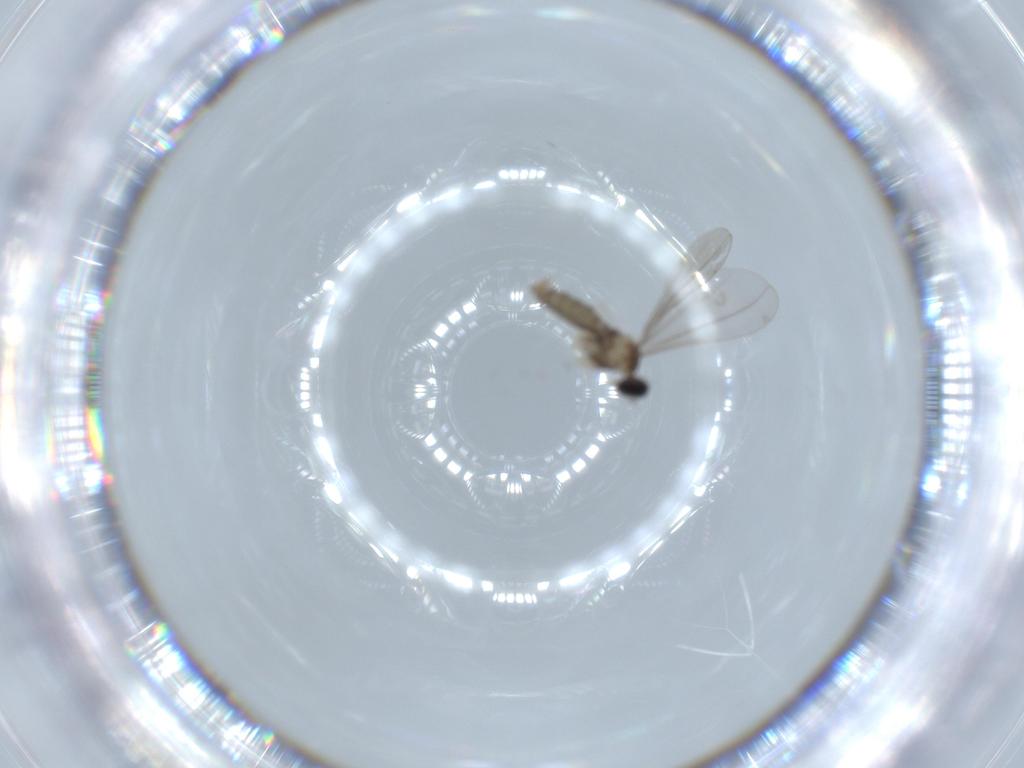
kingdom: Animalia
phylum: Arthropoda
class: Insecta
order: Diptera
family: Cecidomyiidae
